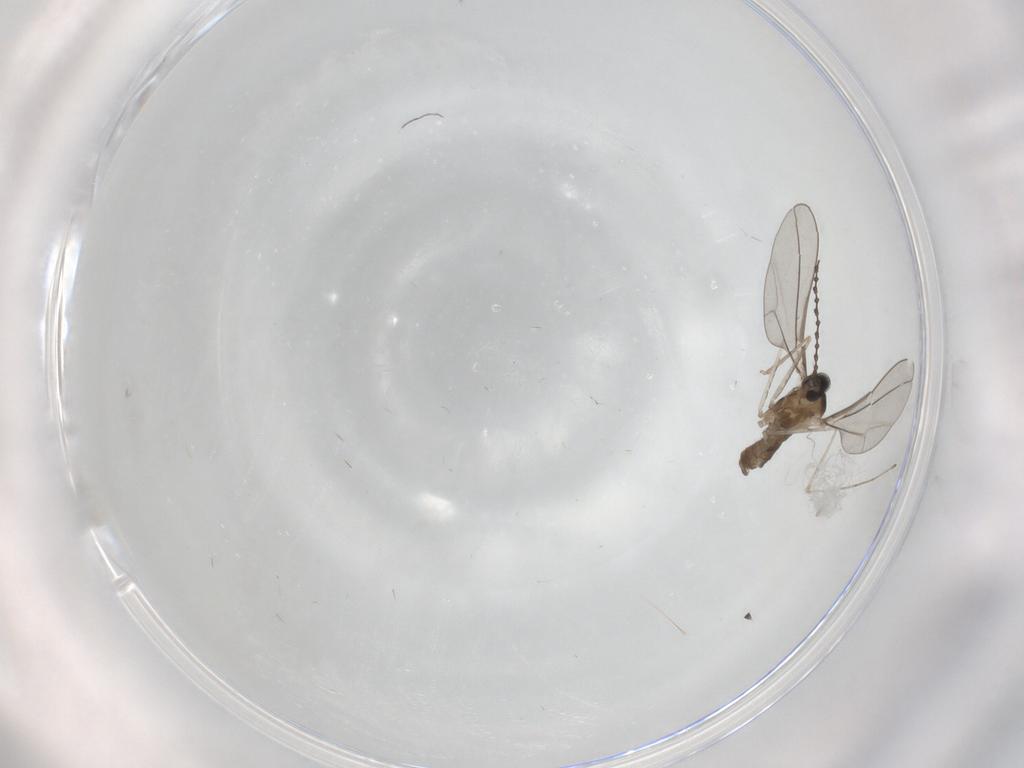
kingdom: Animalia
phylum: Arthropoda
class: Insecta
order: Diptera
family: Cecidomyiidae
